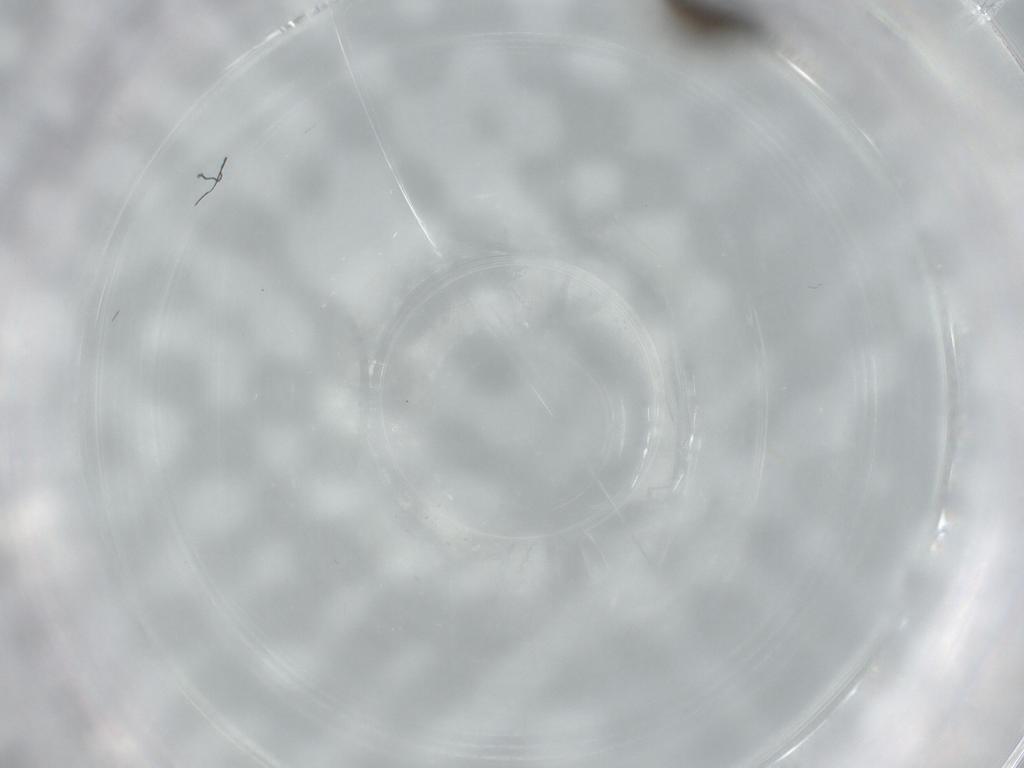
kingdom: Animalia
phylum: Arthropoda
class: Insecta
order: Diptera
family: Lauxaniidae
